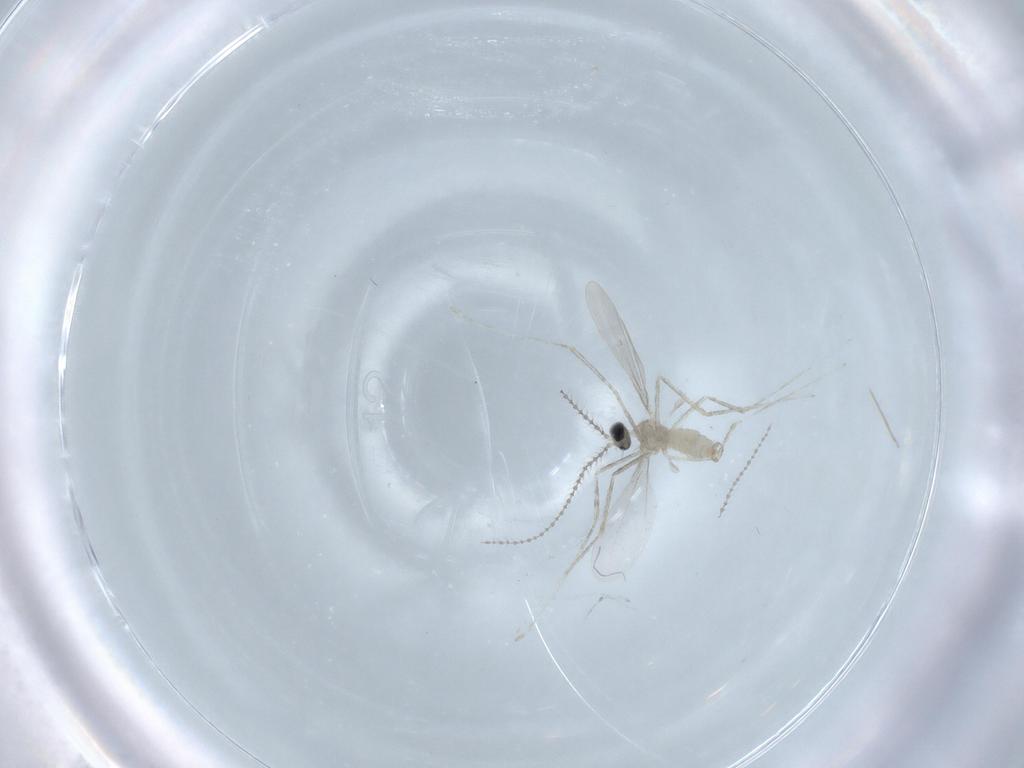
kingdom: Animalia
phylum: Arthropoda
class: Insecta
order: Diptera
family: Cecidomyiidae
